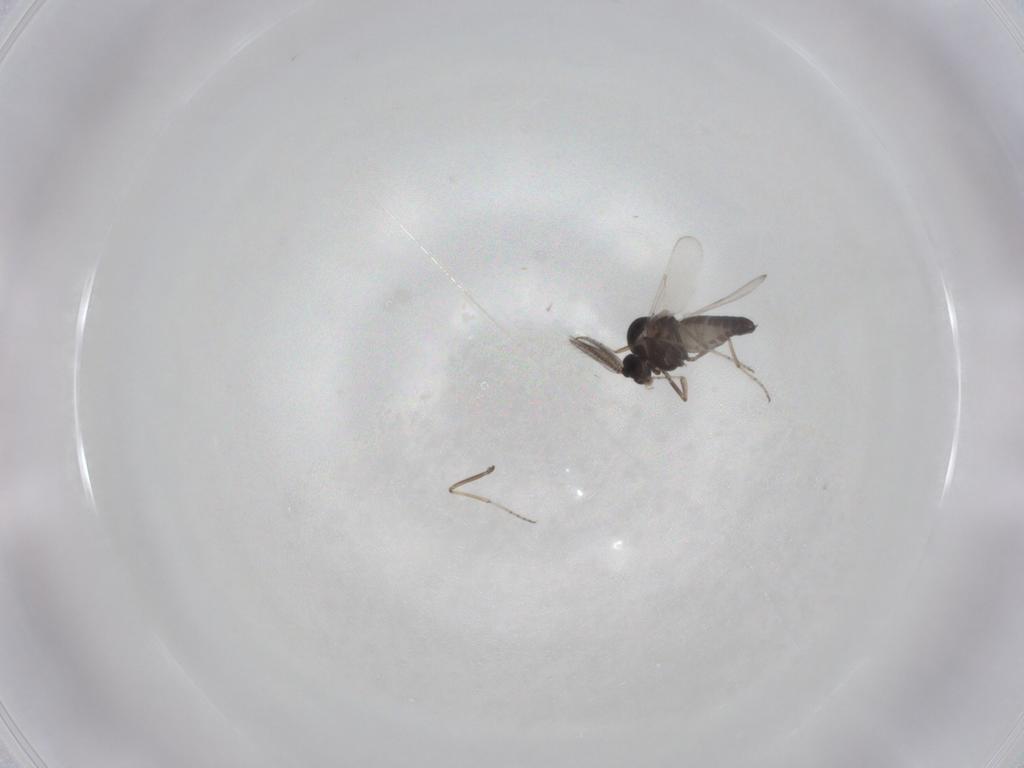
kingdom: Animalia
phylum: Arthropoda
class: Insecta
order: Diptera
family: Ceratopogonidae
